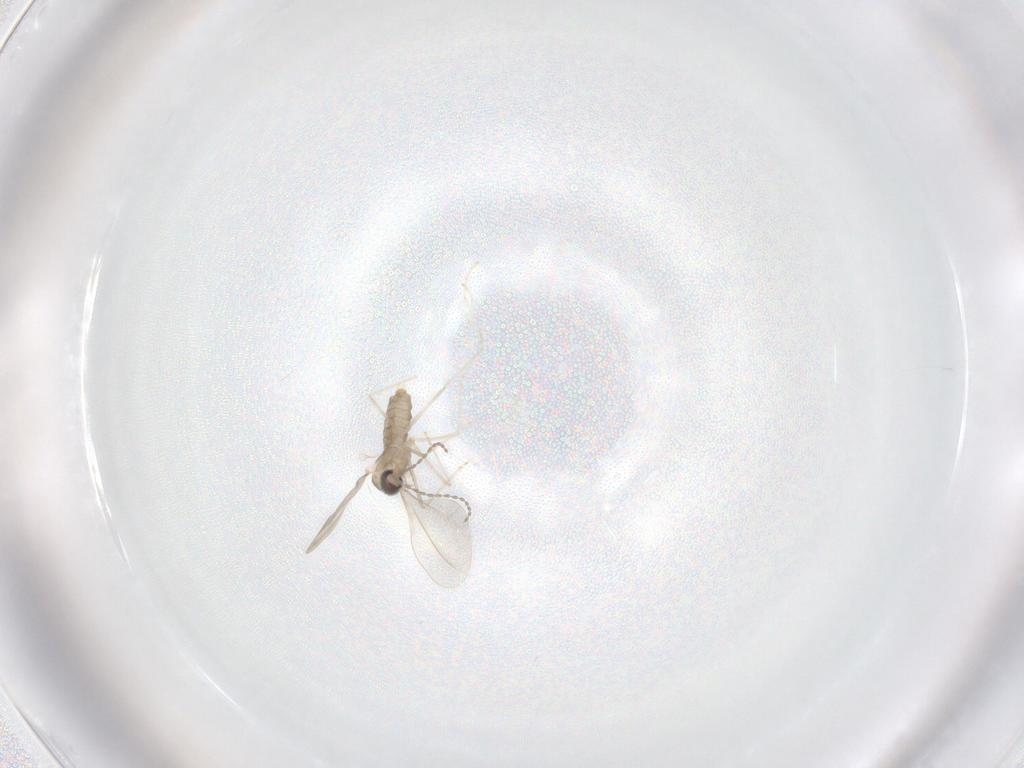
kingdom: Animalia
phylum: Arthropoda
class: Insecta
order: Diptera
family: Cecidomyiidae
